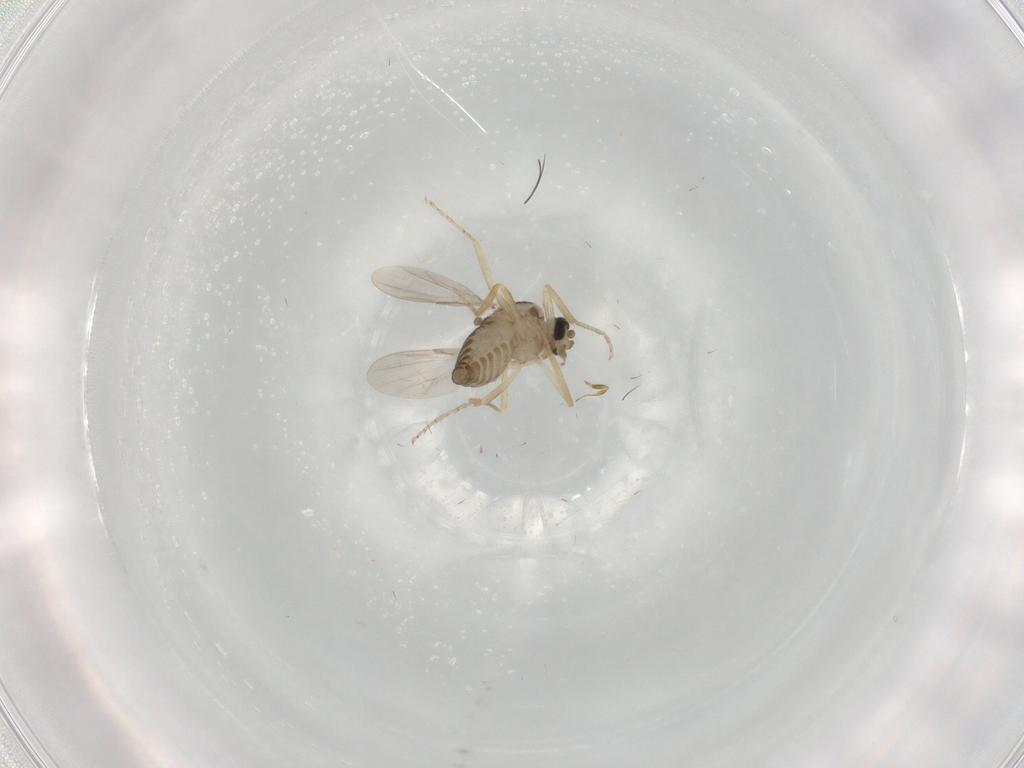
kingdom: Animalia
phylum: Arthropoda
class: Insecta
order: Diptera
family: Ceratopogonidae
